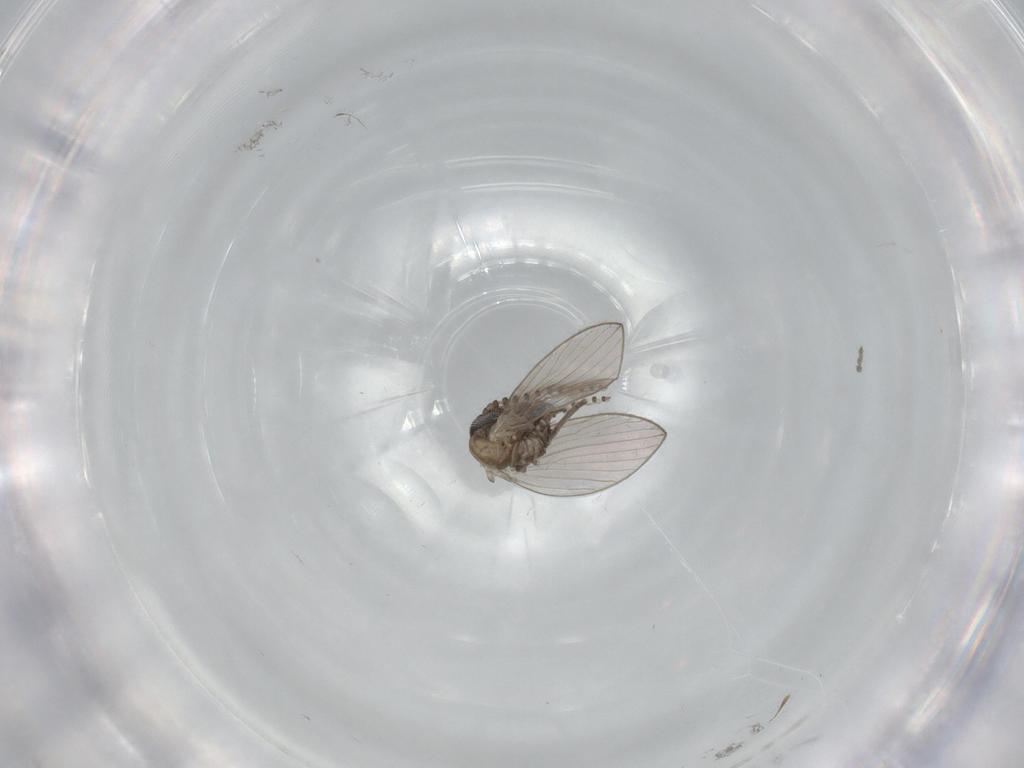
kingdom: Animalia
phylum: Arthropoda
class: Insecta
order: Diptera
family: Psychodidae
